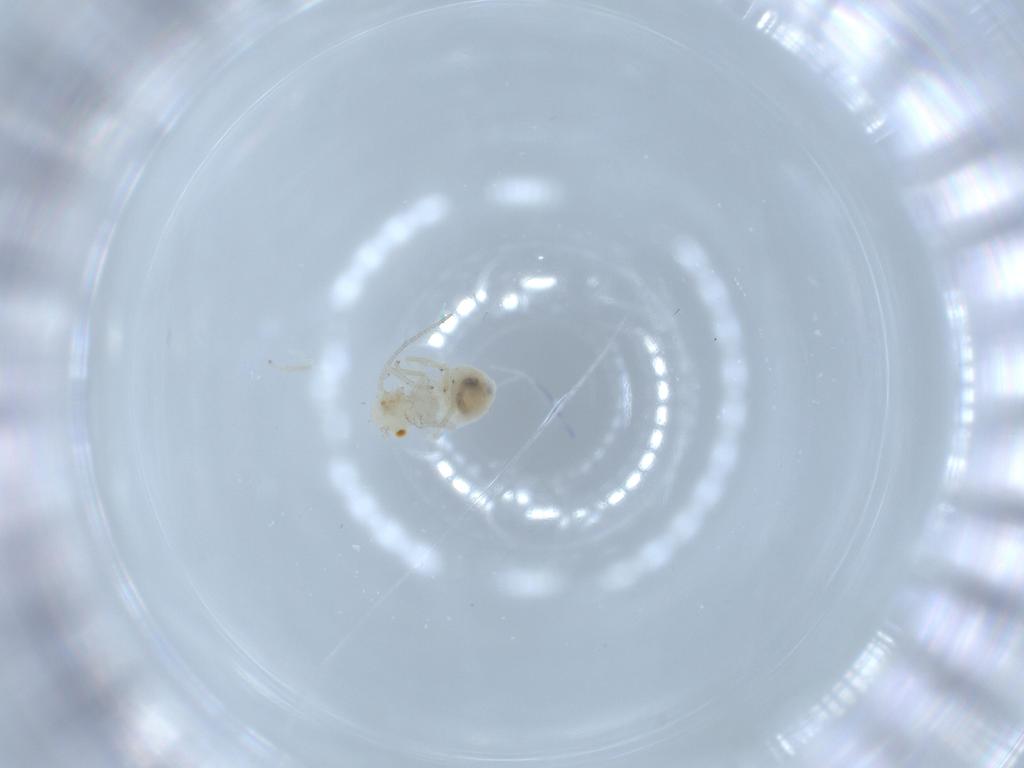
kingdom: Animalia
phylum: Arthropoda
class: Insecta
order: Psocodea
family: Caeciliusidae
